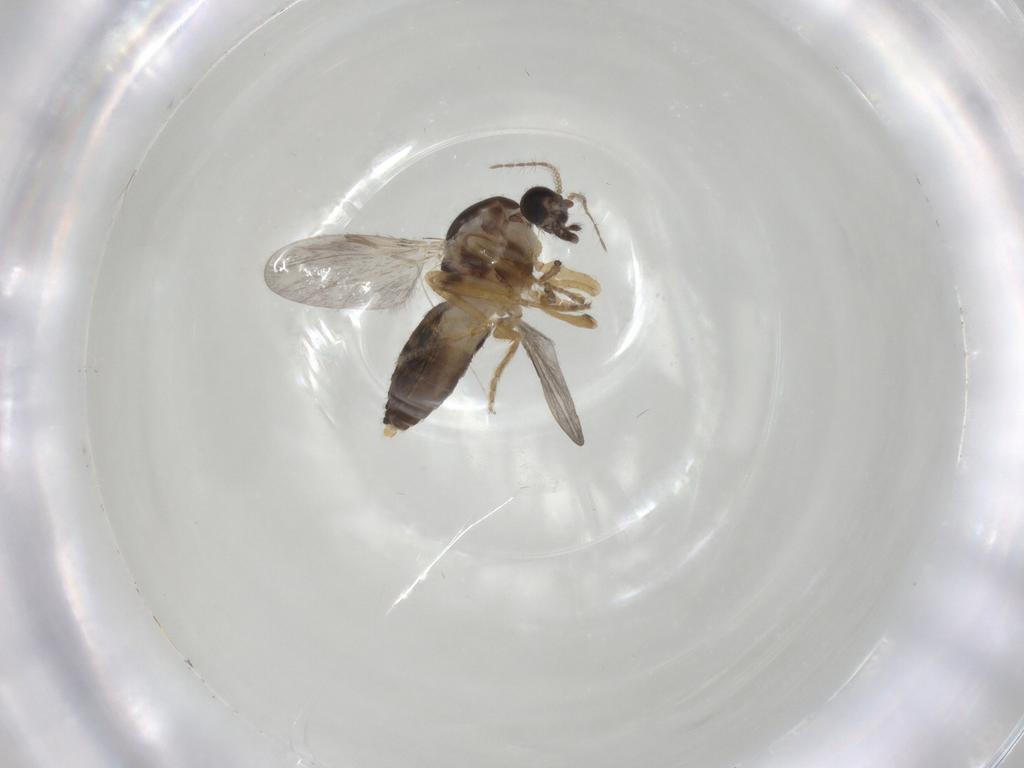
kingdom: Animalia
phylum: Arthropoda
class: Insecta
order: Diptera
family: Ceratopogonidae
